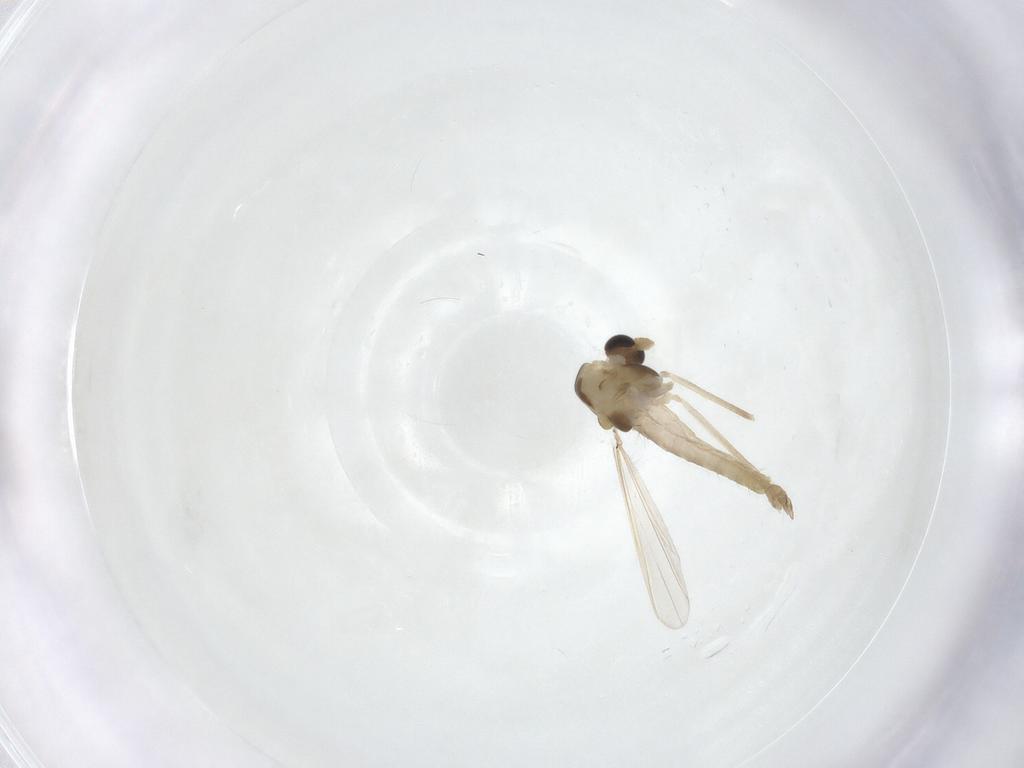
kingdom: Animalia
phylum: Arthropoda
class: Insecta
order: Diptera
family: Chironomidae
